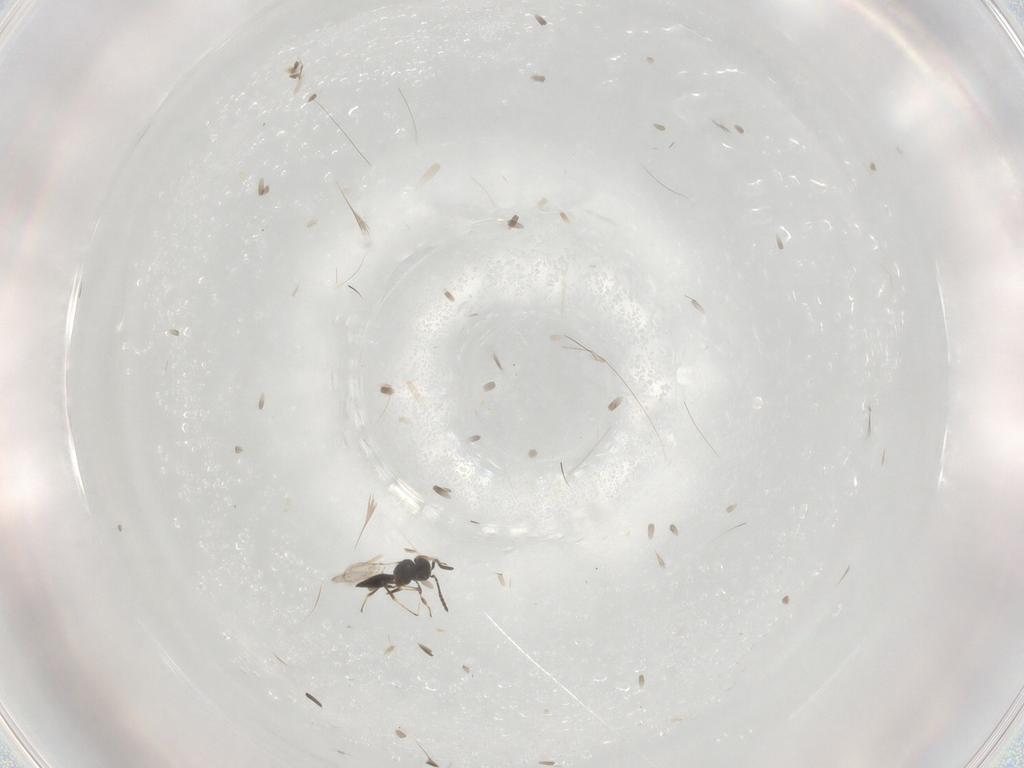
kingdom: Animalia
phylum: Arthropoda
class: Insecta
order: Hymenoptera
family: Scelionidae
